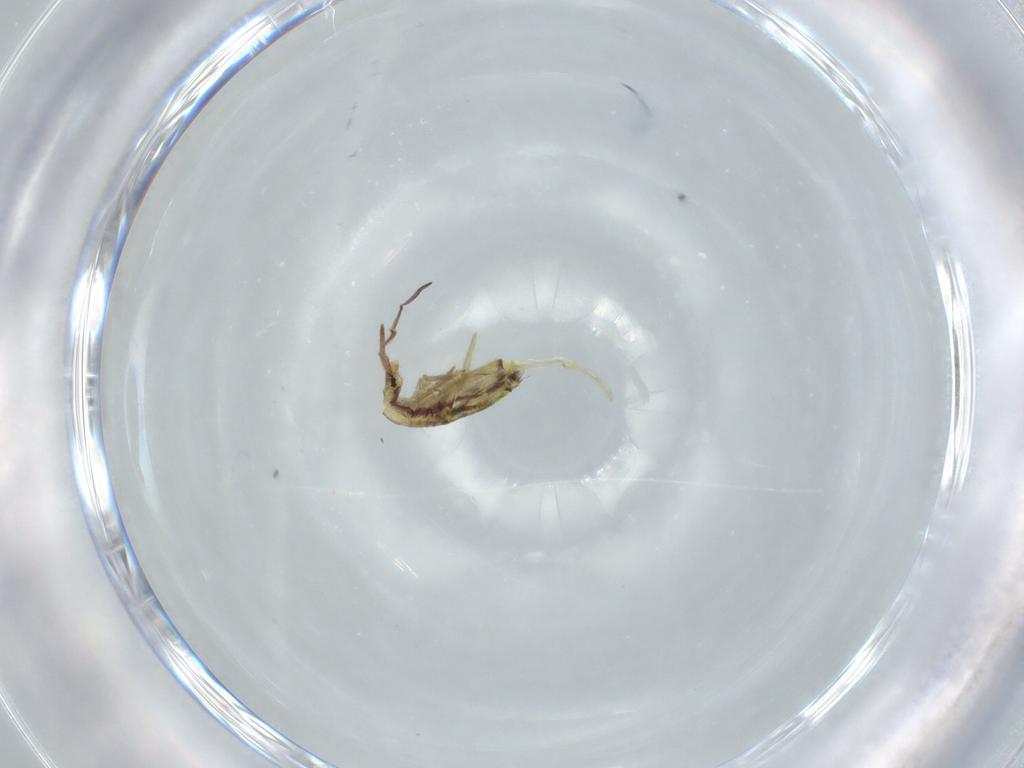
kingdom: Animalia
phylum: Arthropoda
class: Collembola
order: Entomobryomorpha
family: Entomobryidae
